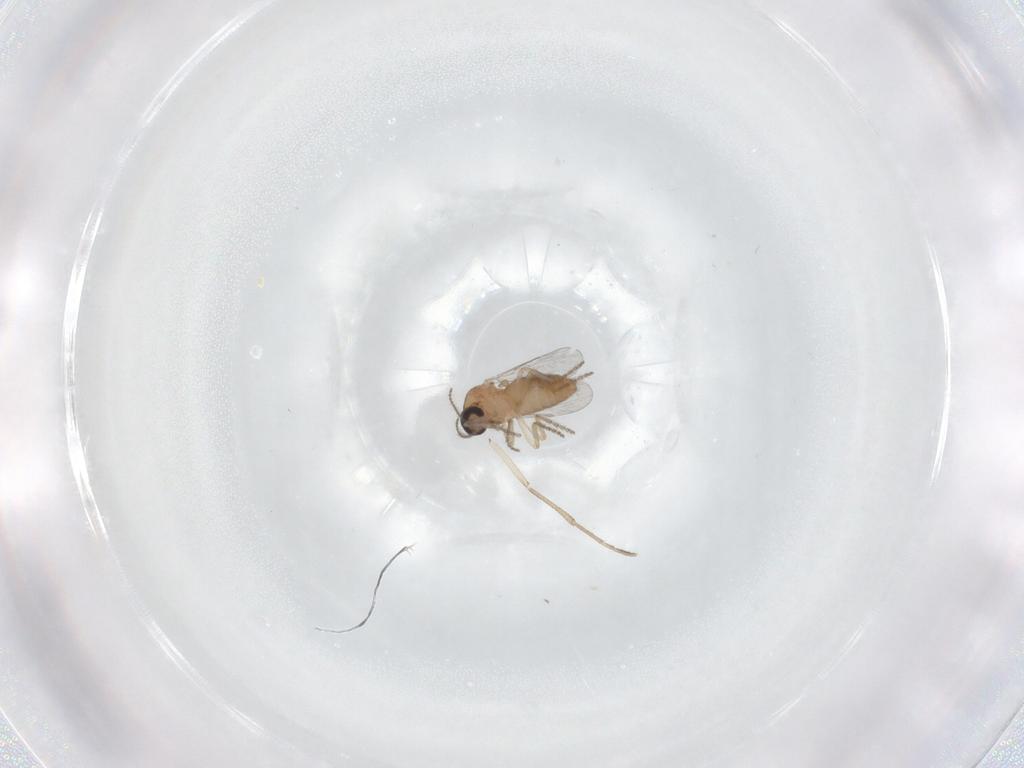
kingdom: Animalia
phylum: Arthropoda
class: Insecta
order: Diptera
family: Ceratopogonidae
